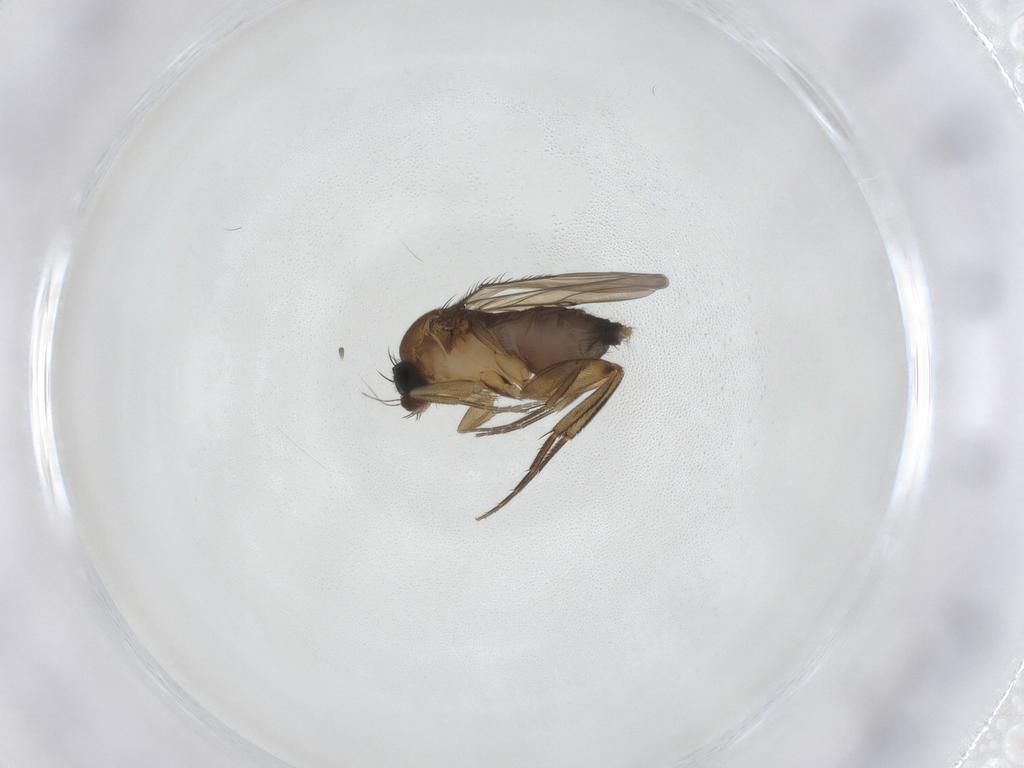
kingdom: Animalia
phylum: Arthropoda
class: Insecta
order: Diptera
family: Phoridae
